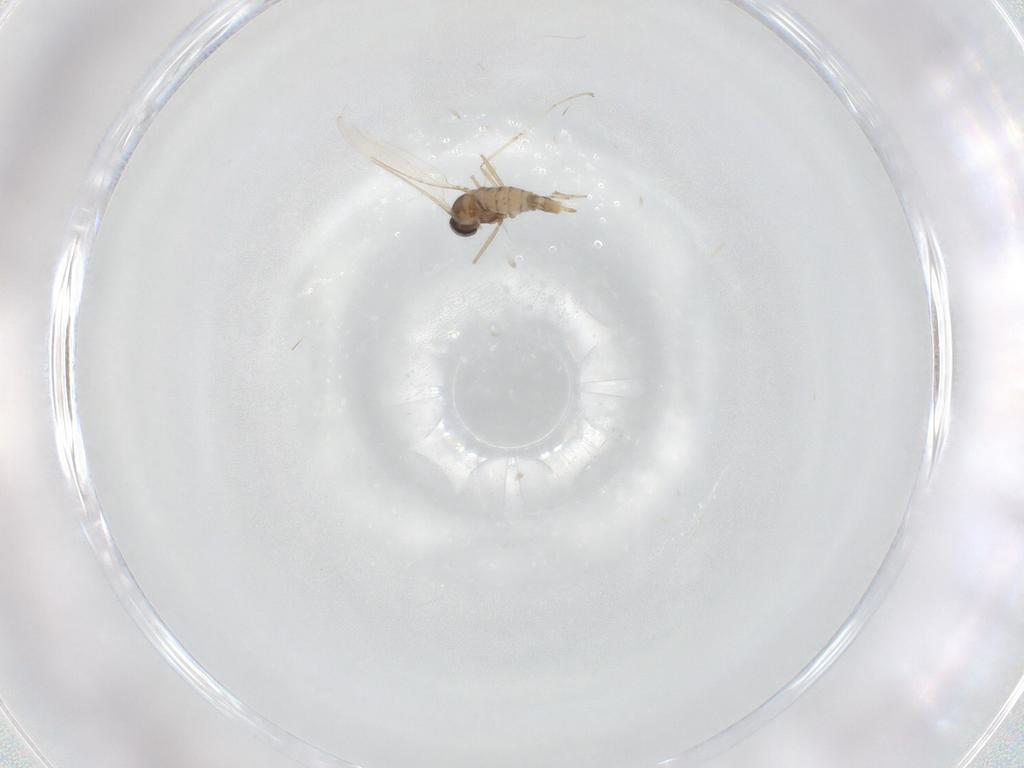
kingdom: Animalia
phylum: Arthropoda
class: Insecta
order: Diptera
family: Cecidomyiidae
